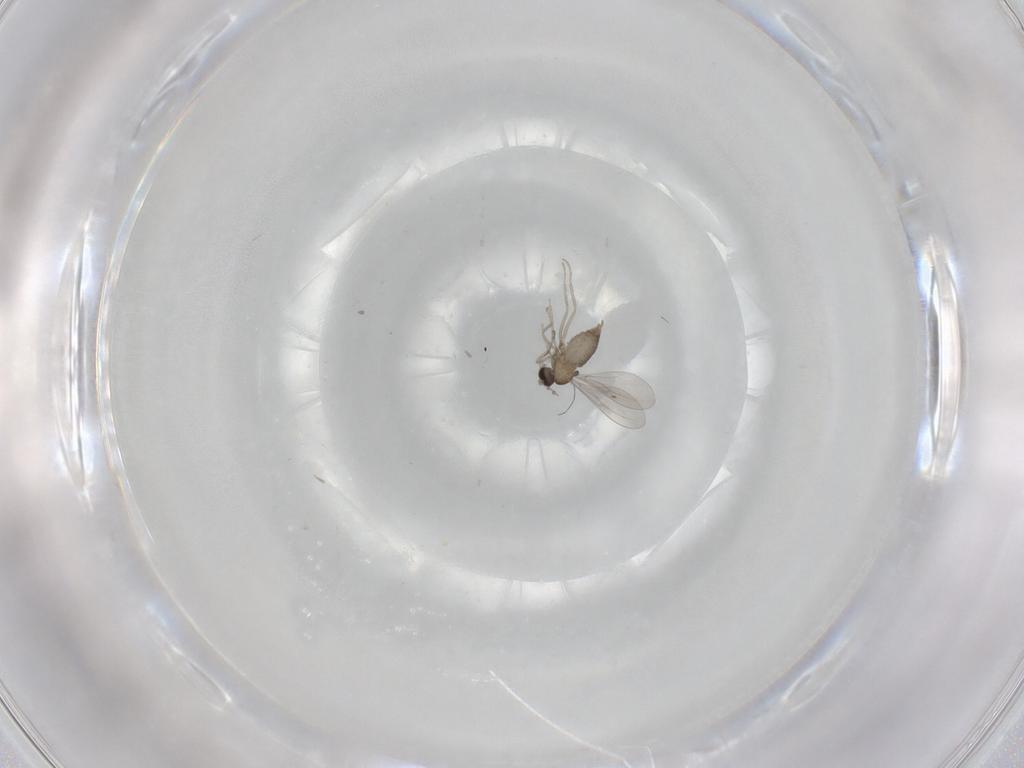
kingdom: Animalia
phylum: Arthropoda
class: Insecta
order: Diptera
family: Cecidomyiidae
